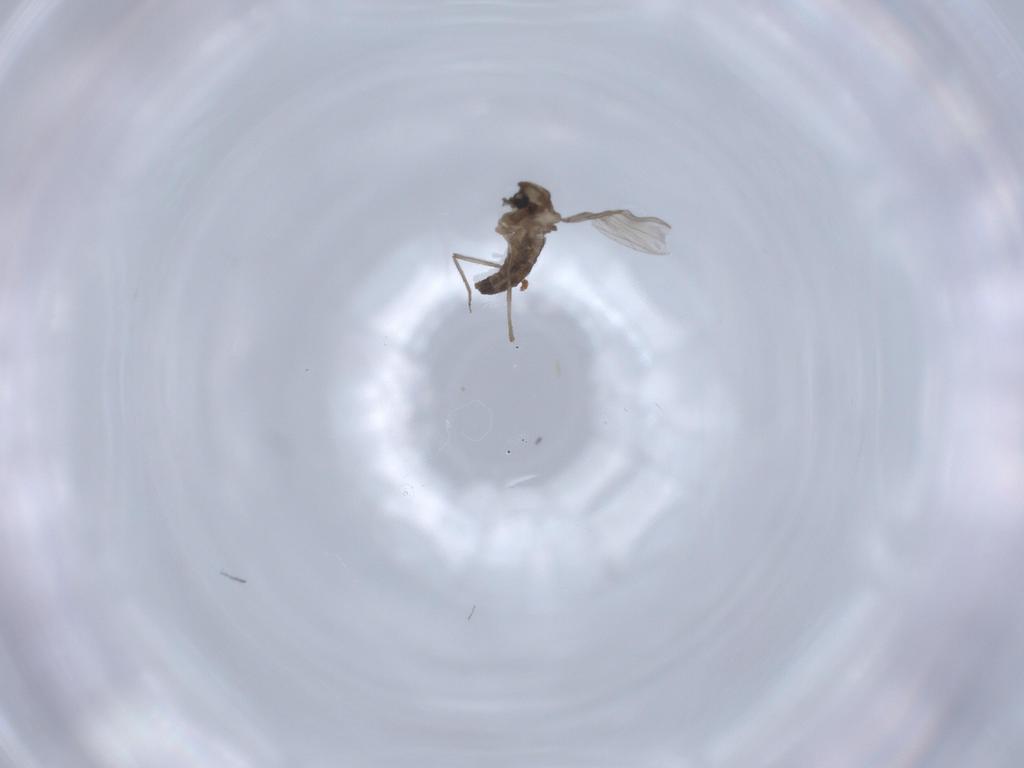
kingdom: Animalia
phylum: Arthropoda
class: Insecta
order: Diptera
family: Chironomidae
